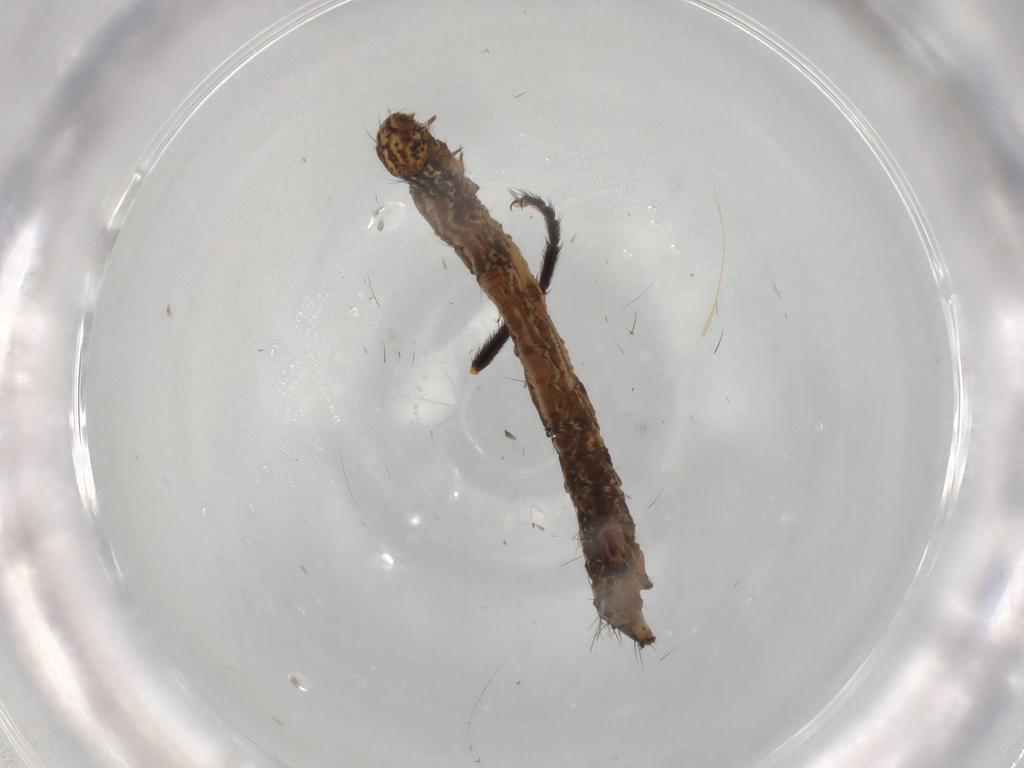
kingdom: Animalia
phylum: Arthropoda
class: Insecta
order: Lepidoptera
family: Geometridae
